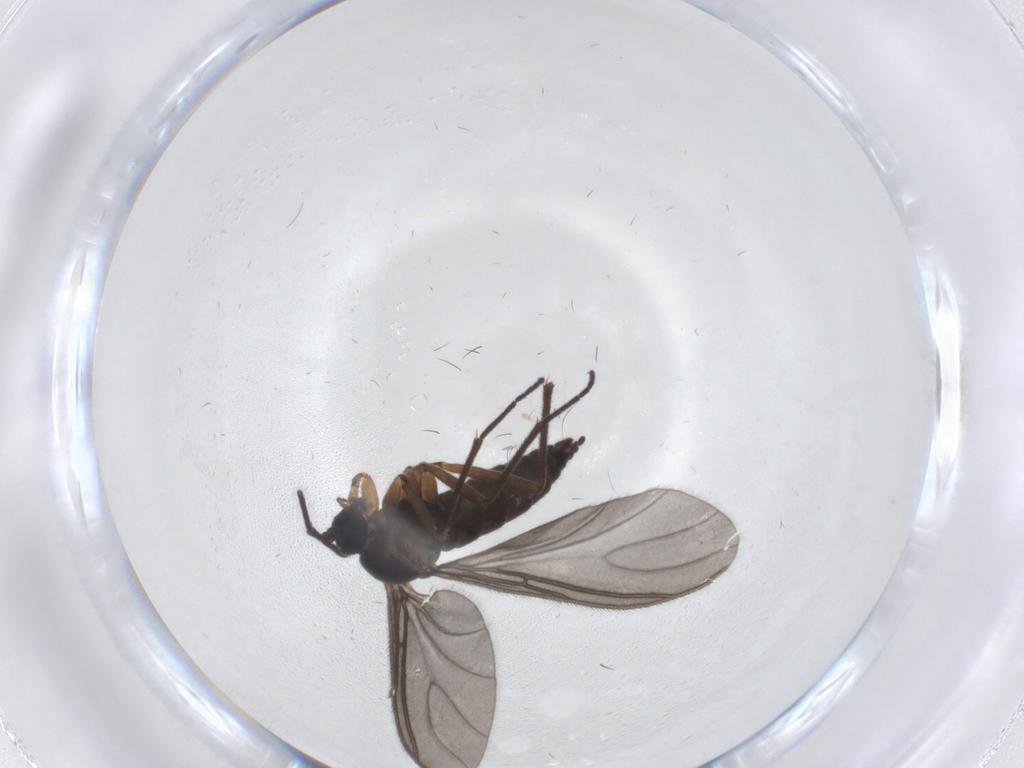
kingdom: Animalia
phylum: Arthropoda
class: Insecta
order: Diptera
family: Sciaridae
